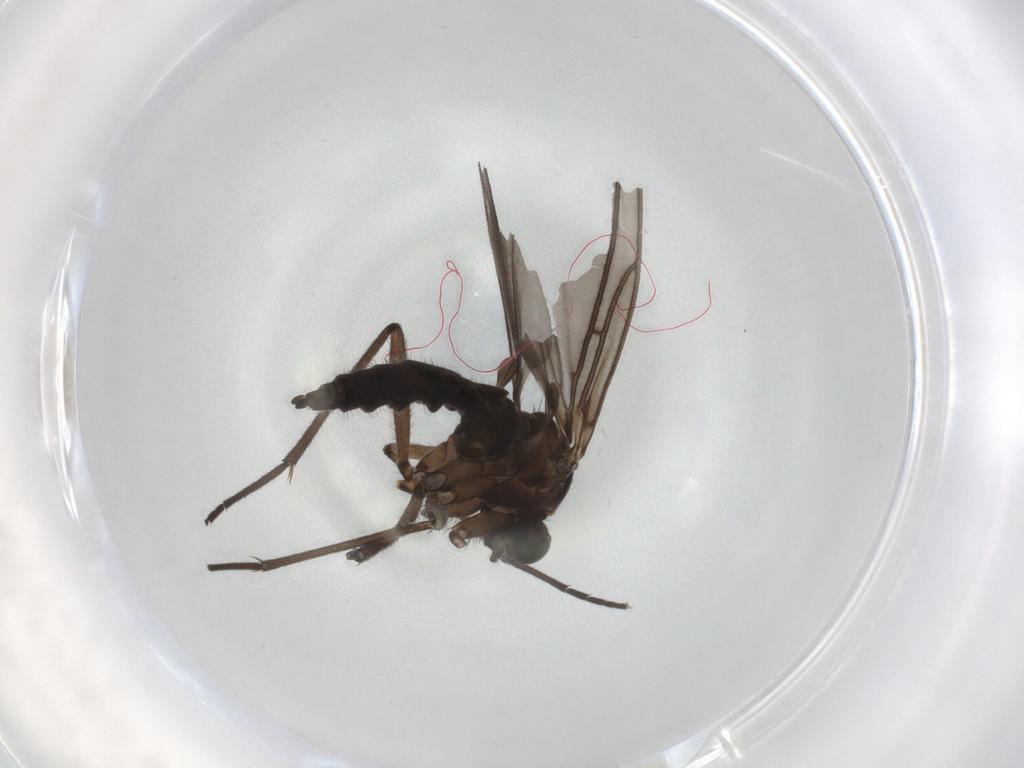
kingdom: Animalia
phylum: Arthropoda
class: Insecta
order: Diptera
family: Sciaridae
